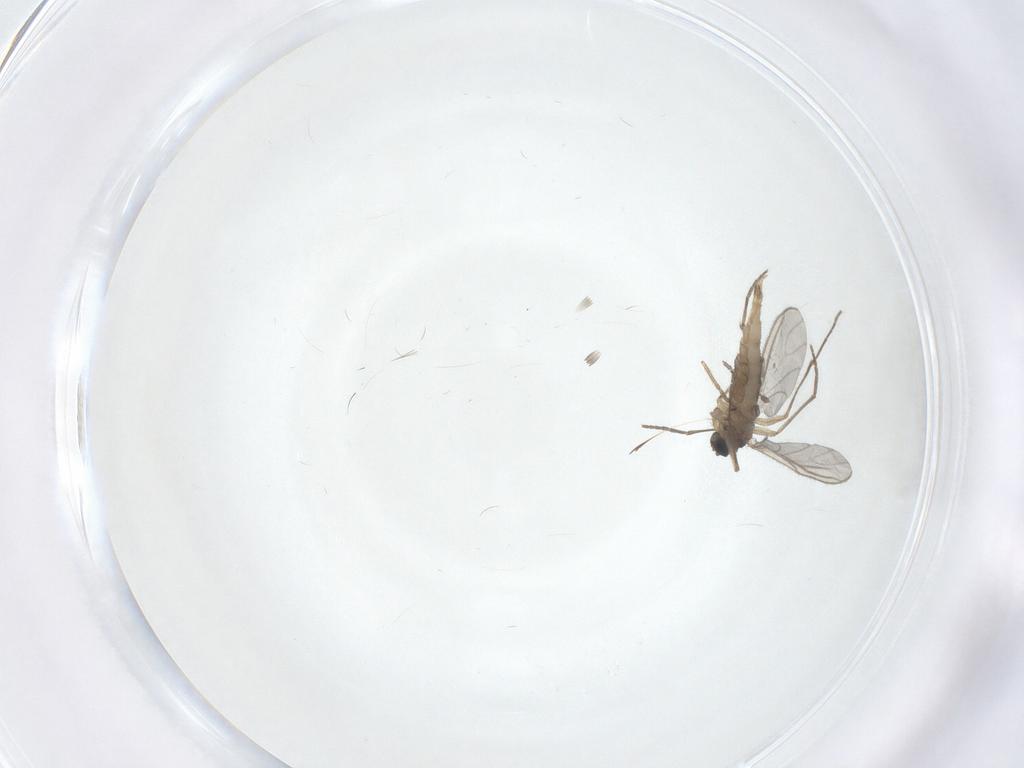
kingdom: Animalia
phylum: Arthropoda
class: Insecta
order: Diptera
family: Sciaridae
